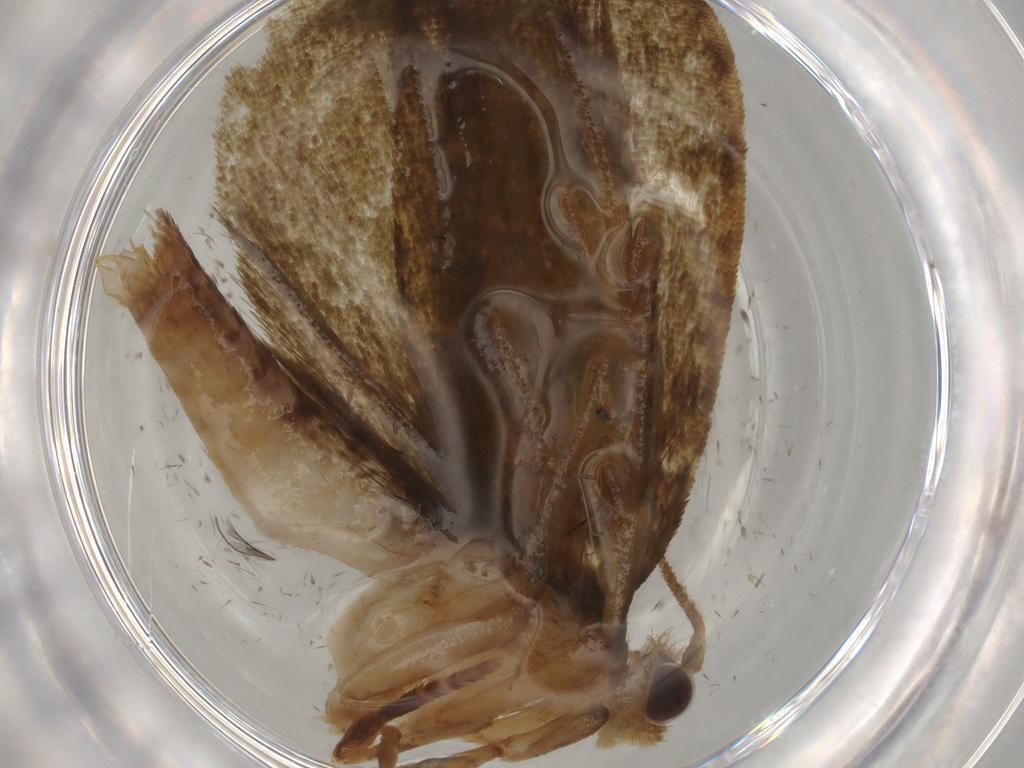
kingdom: Animalia
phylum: Arthropoda
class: Insecta
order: Lepidoptera
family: Geometridae
